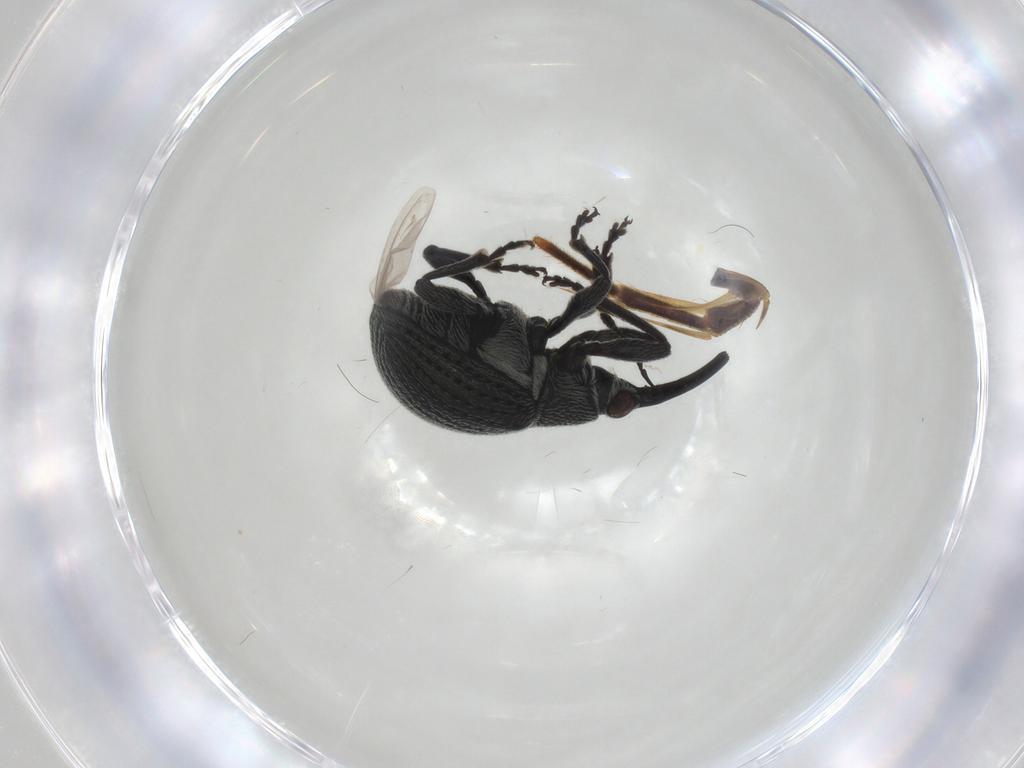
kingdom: Animalia
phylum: Arthropoda
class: Insecta
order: Coleoptera
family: Brentidae
